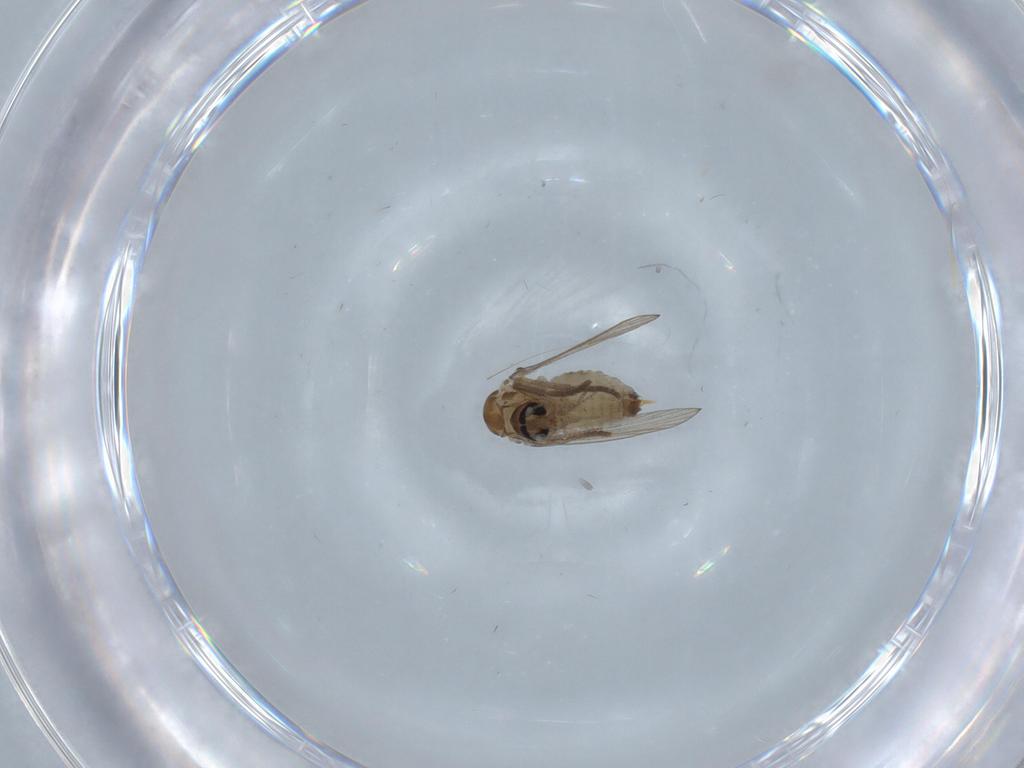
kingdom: Animalia
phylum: Arthropoda
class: Insecta
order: Diptera
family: Psychodidae
